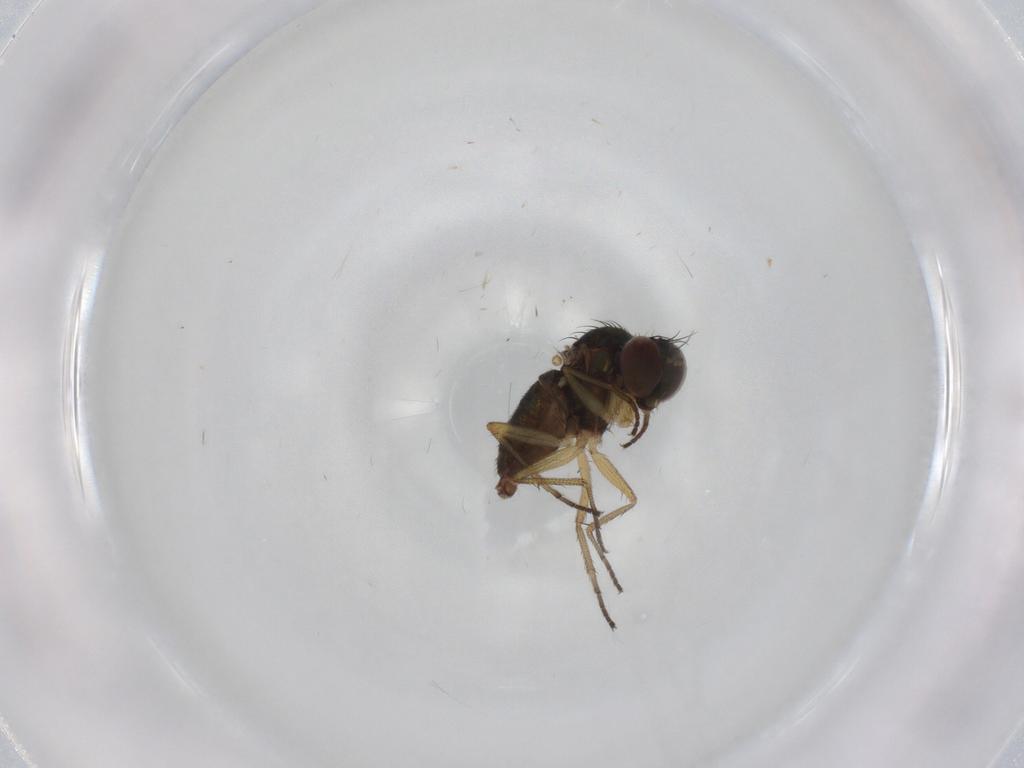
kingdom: Animalia
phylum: Arthropoda
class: Insecta
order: Diptera
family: Dolichopodidae
